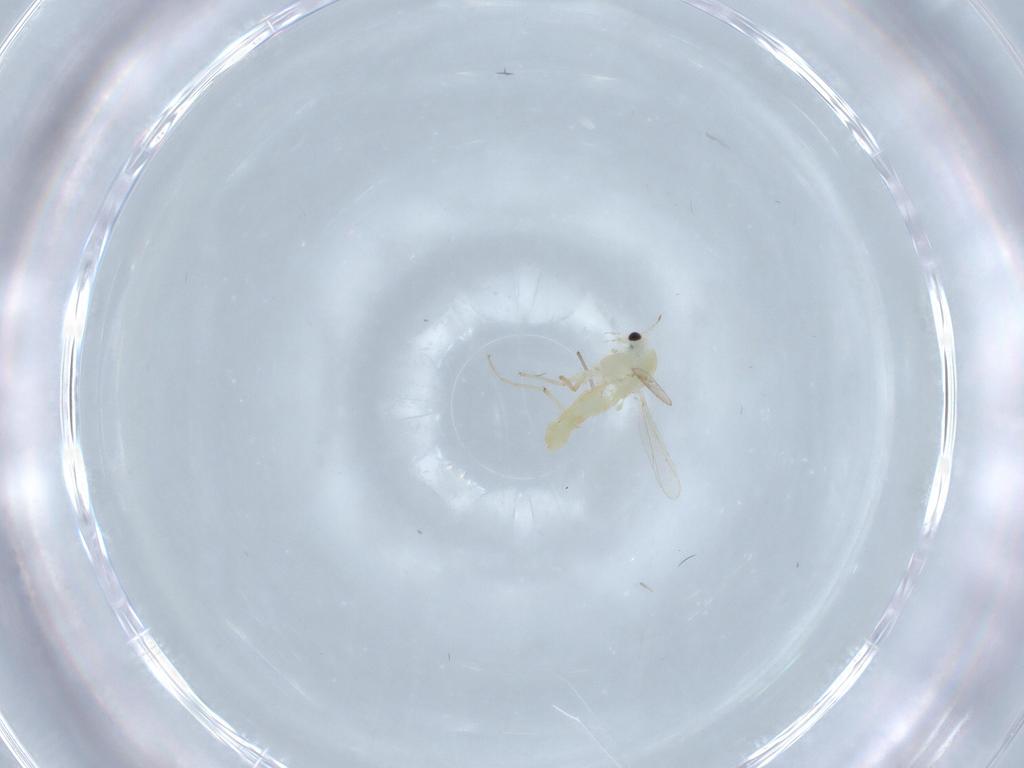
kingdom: Animalia
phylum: Arthropoda
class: Insecta
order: Diptera
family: Chironomidae
